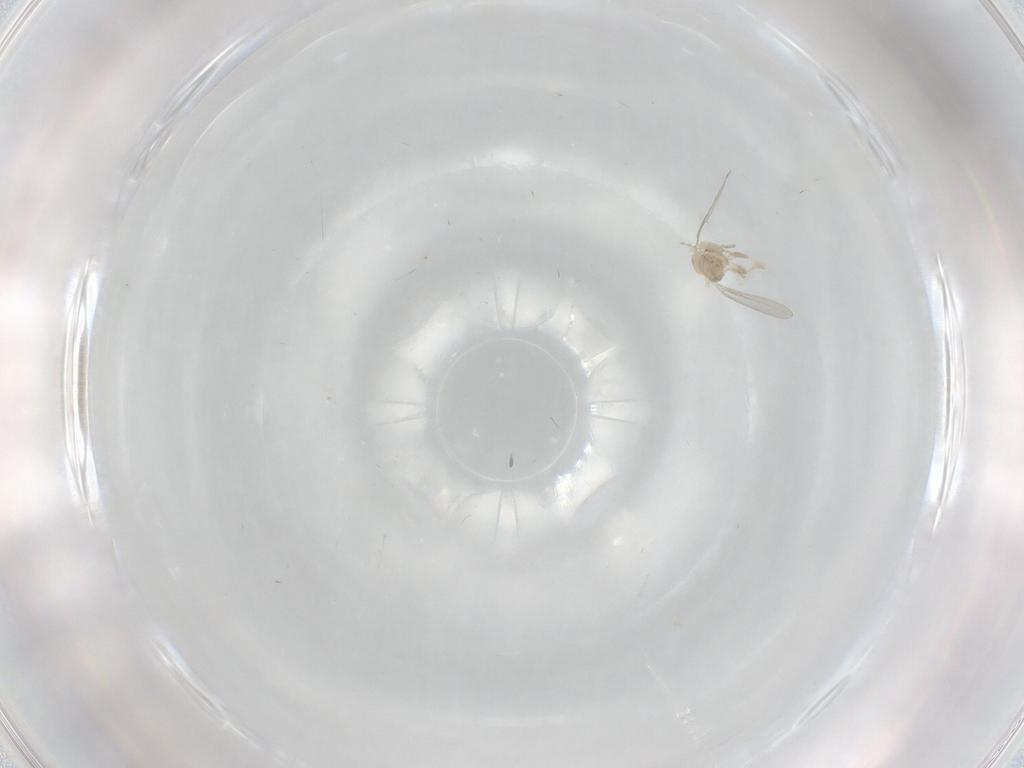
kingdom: Animalia
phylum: Arthropoda
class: Insecta
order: Diptera
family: Cecidomyiidae
